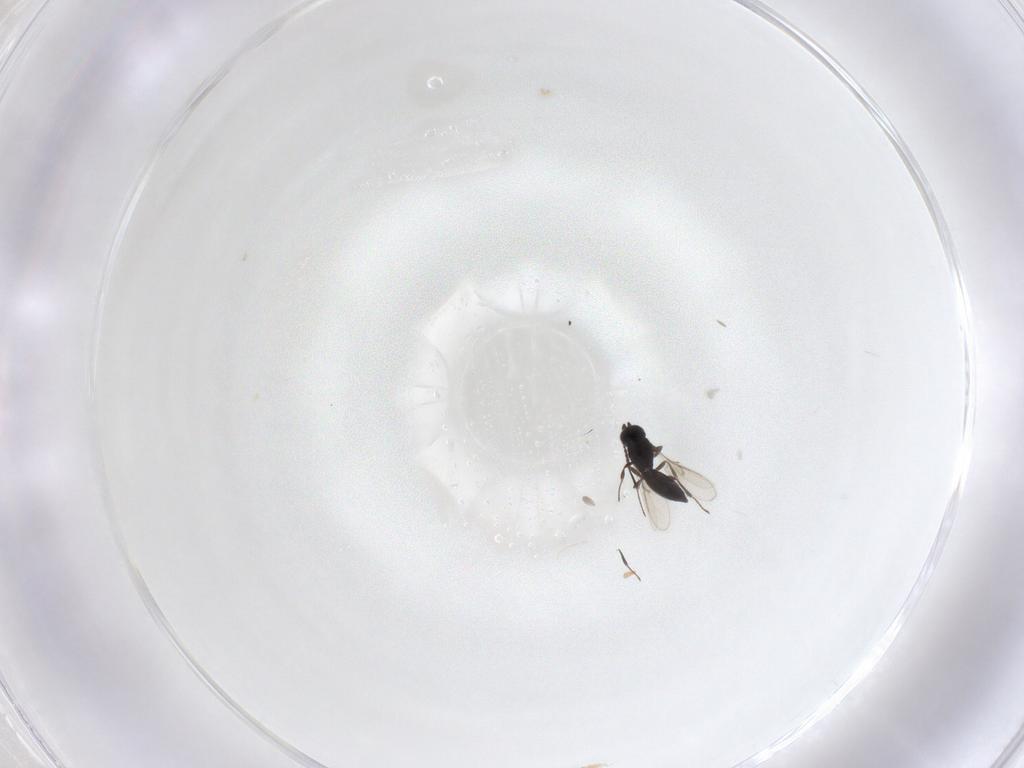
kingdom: Animalia
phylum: Arthropoda
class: Insecta
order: Hymenoptera
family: Scelionidae
